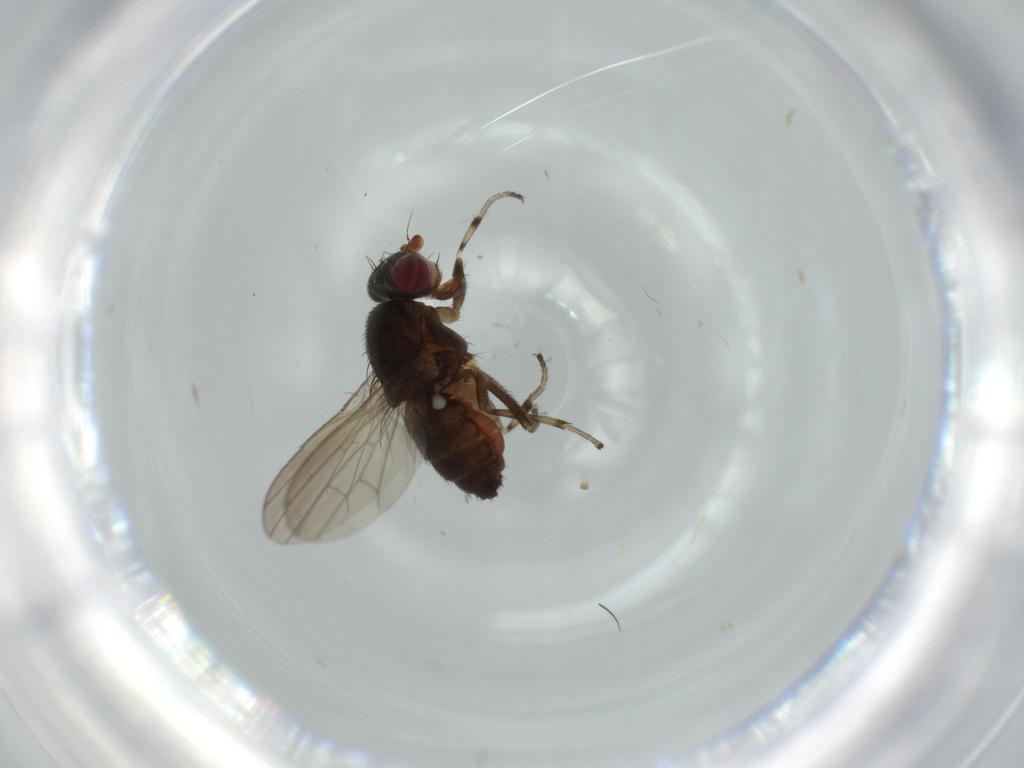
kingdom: Animalia
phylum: Arthropoda
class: Insecta
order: Diptera
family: Heleomyzidae
